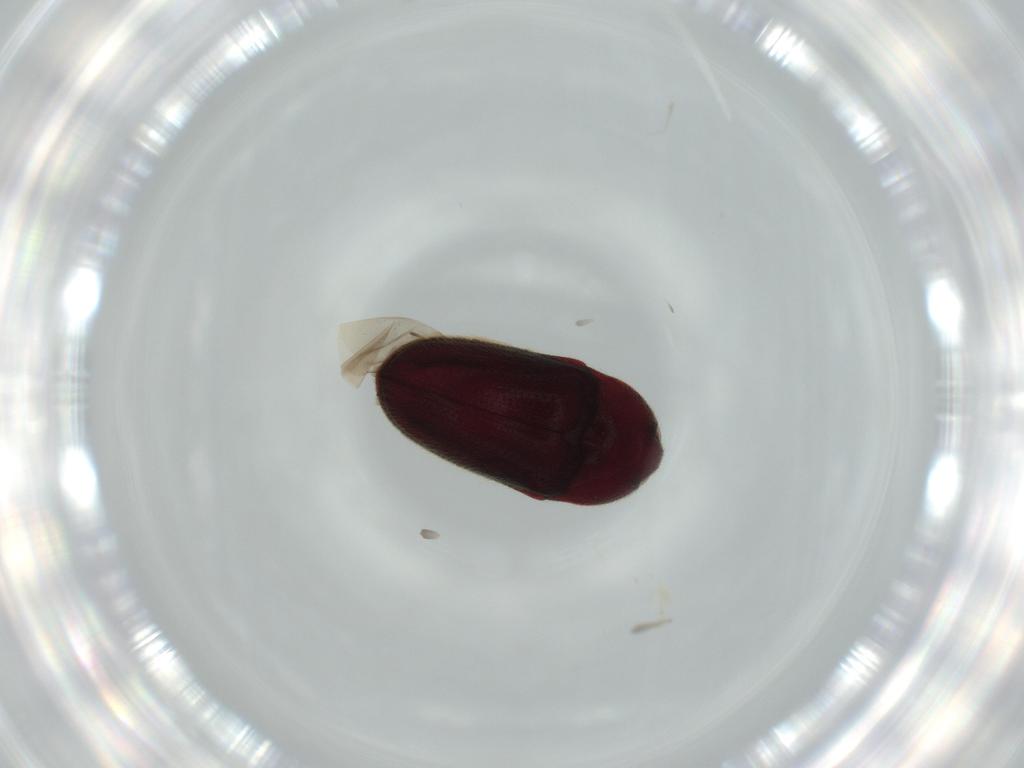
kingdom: Animalia
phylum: Arthropoda
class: Insecta
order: Coleoptera
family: Throscidae
